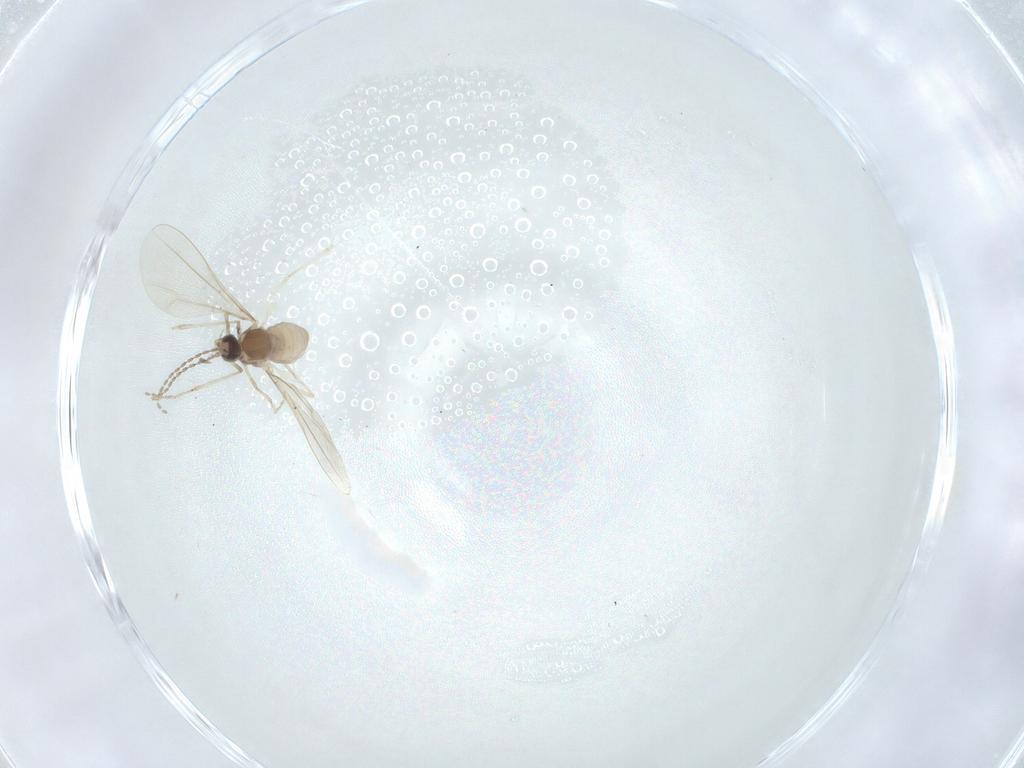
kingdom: Animalia
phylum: Arthropoda
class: Insecta
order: Diptera
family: Cecidomyiidae
